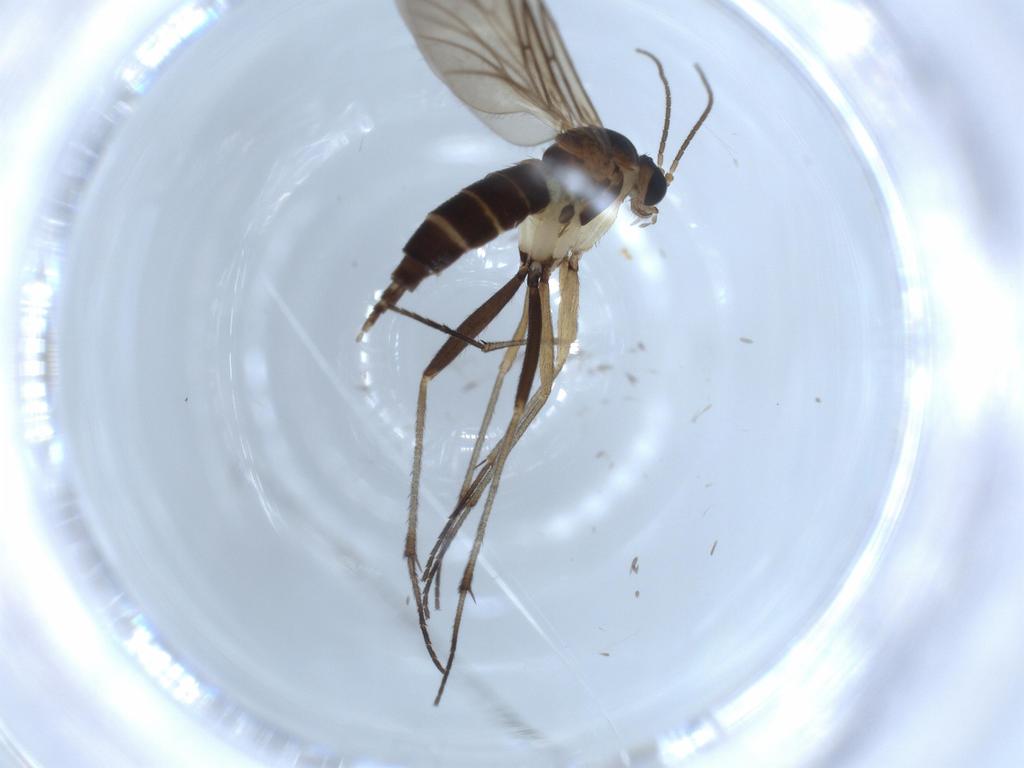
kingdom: Animalia
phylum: Arthropoda
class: Insecta
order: Diptera
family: Sciaridae
